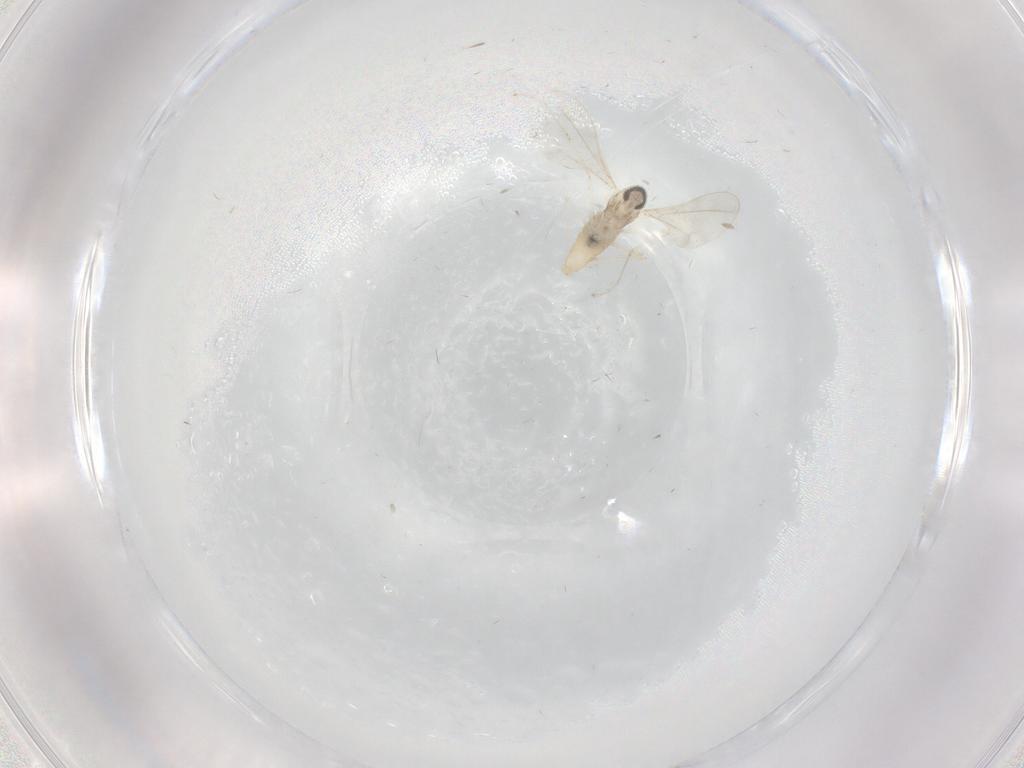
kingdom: Animalia
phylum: Arthropoda
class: Insecta
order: Diptera
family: Cecidomyiidae
